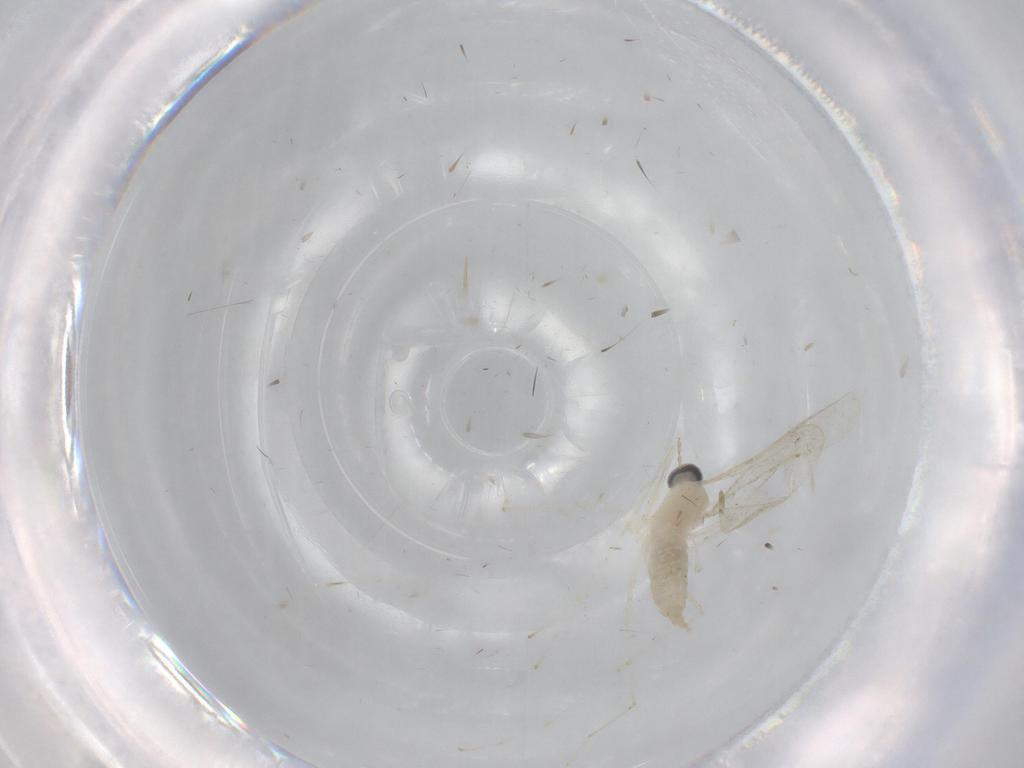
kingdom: Animalia
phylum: Arthropoda
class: Insecta
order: Diptera
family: Cecidomyiidae
